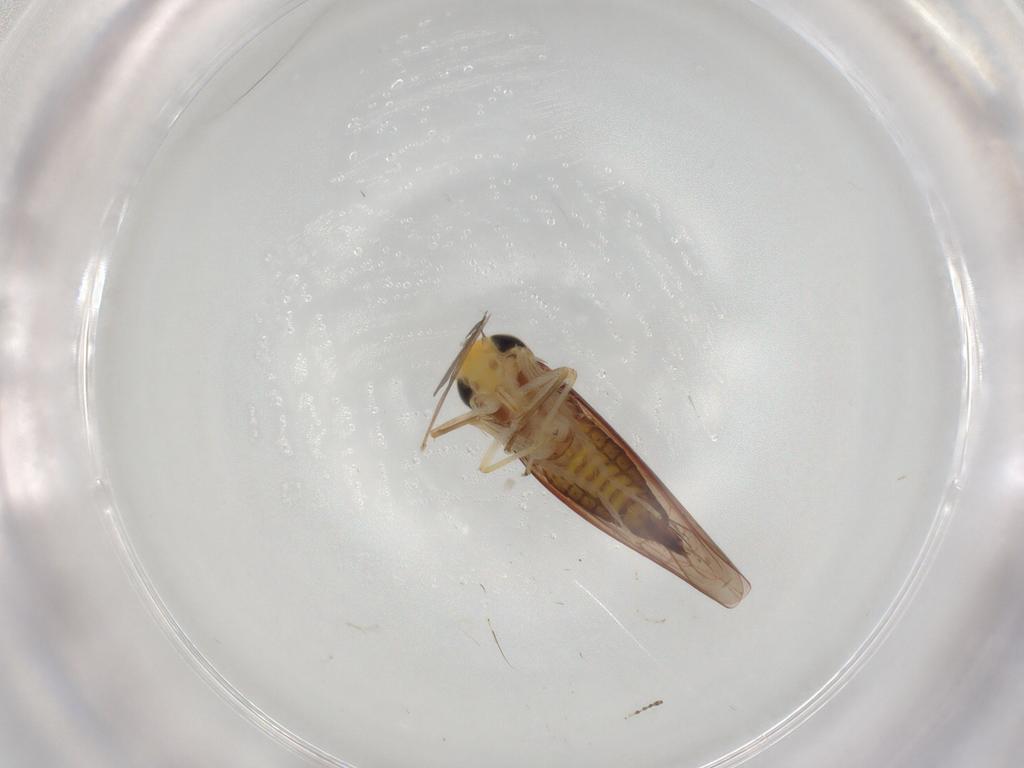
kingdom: Animalia
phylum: Arthropoda
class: Insecta
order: Hemiptera
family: Cicadellidae
